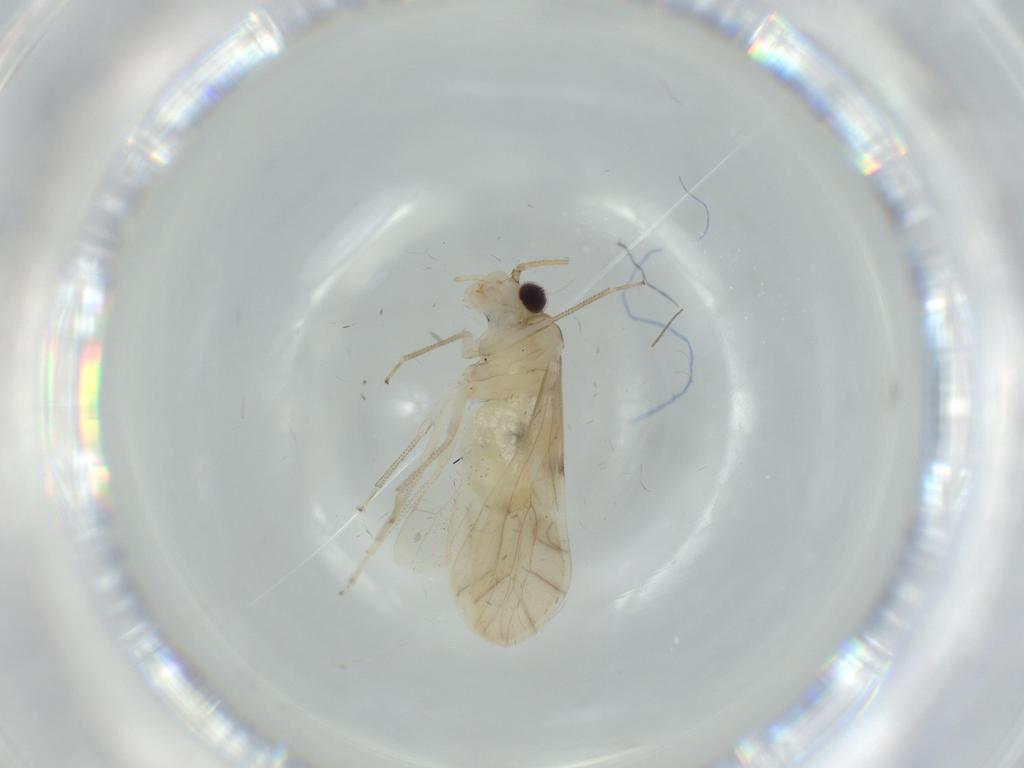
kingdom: Animalia
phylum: Arthropoda
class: Insecta
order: Psocodea
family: Caeciliusidae
